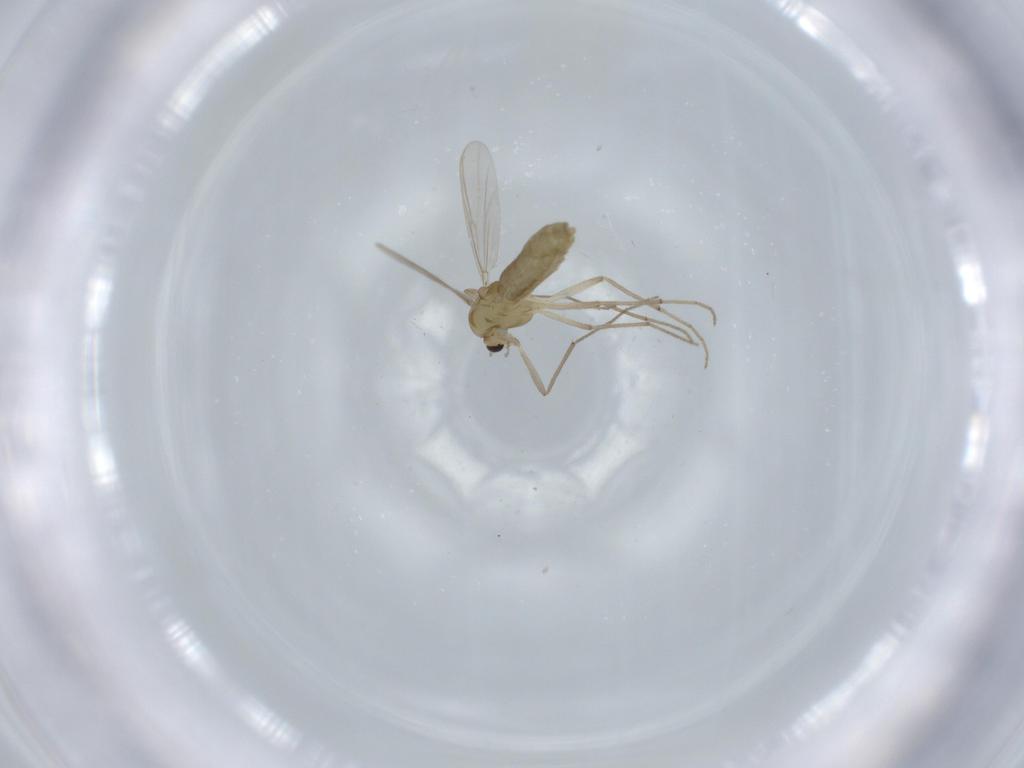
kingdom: Animalia
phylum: Arthropoda
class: Insecta
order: Diptera
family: Chironomidae
